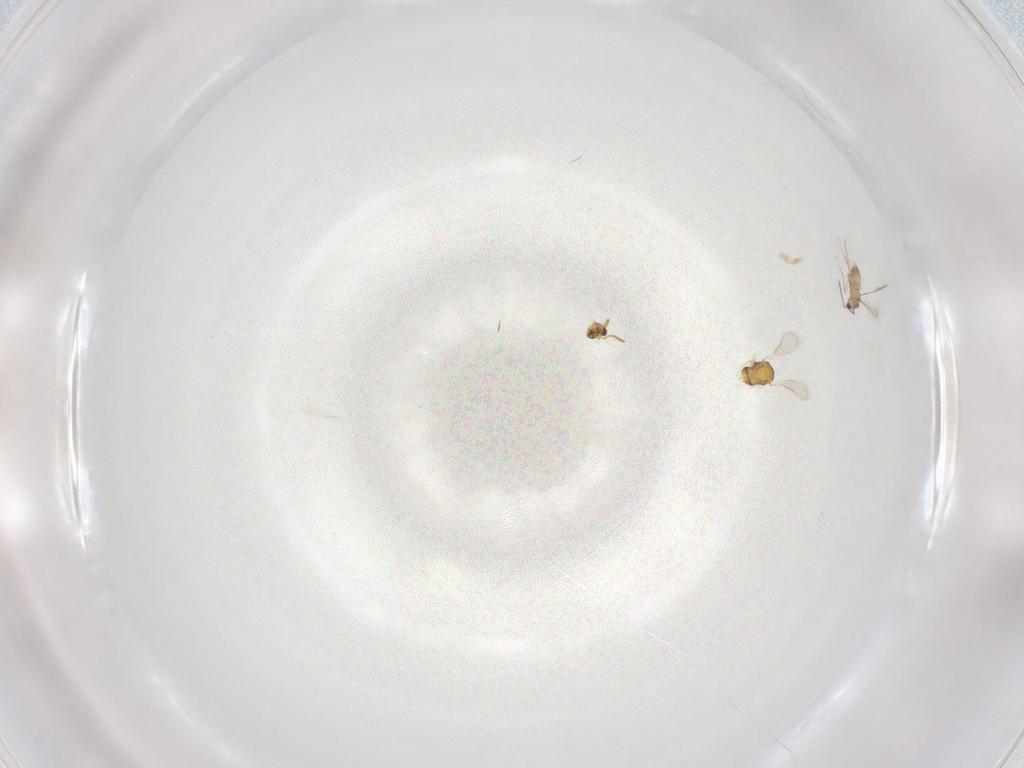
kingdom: Animalia
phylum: Arthropoda
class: Insecta
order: Hymenoptera
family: Aphelinidae
